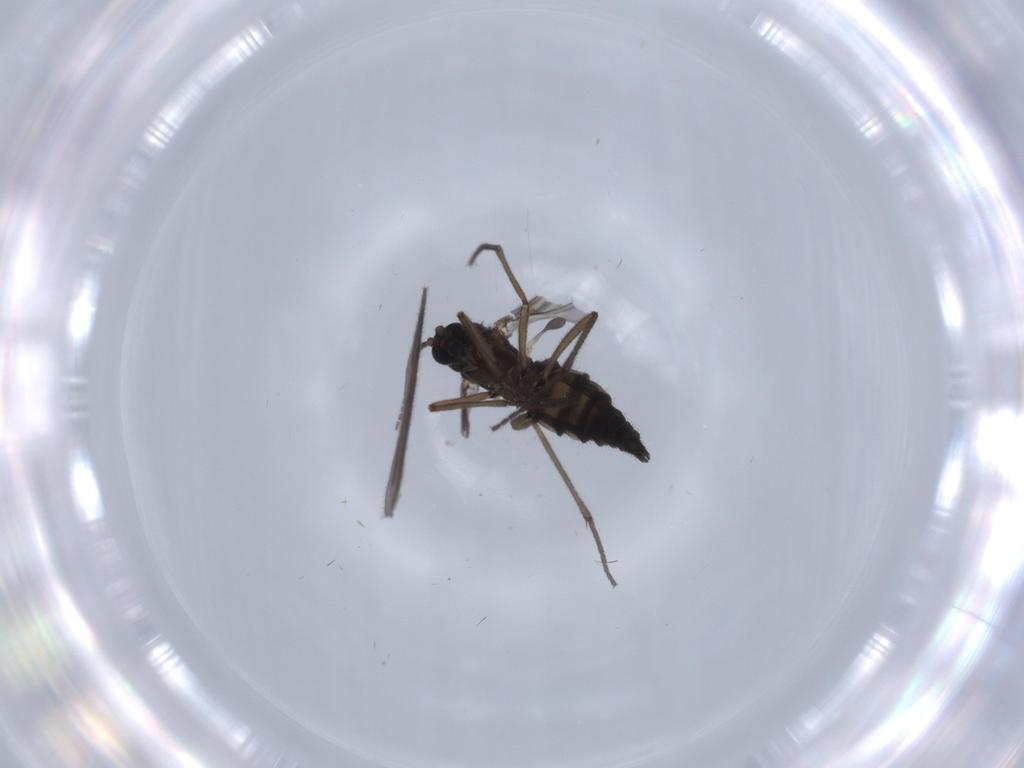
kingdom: Animalia
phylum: Arthropoda
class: Insecta
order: Diptera
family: Sciaridae
